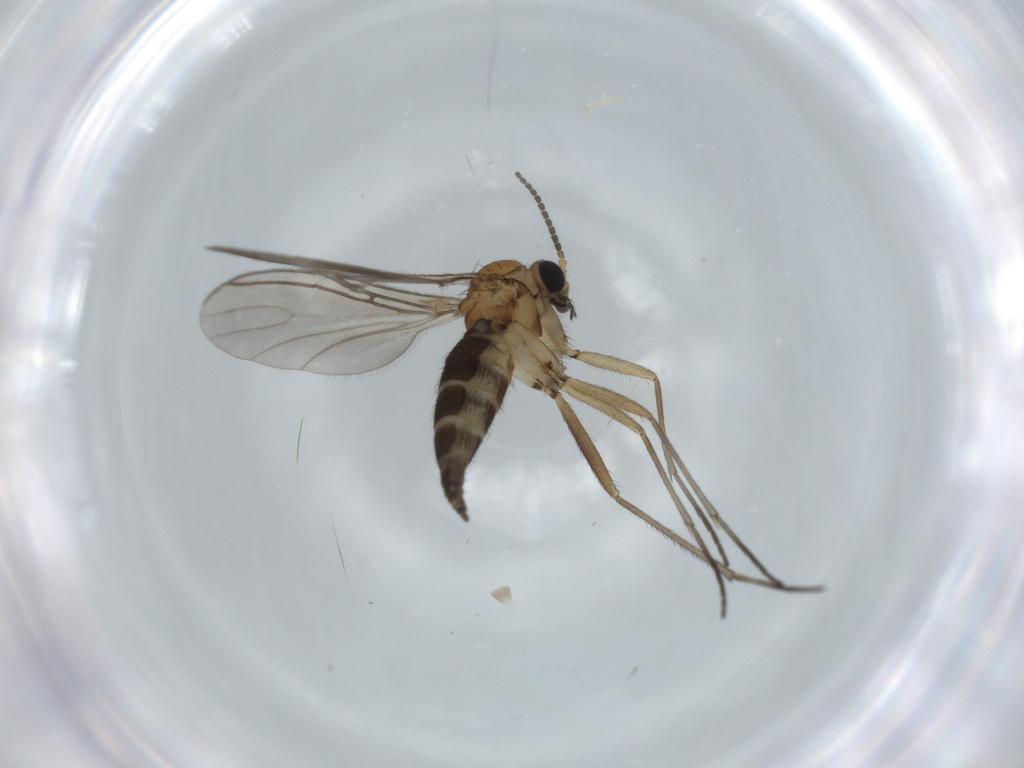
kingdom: Animalia
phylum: Arthropoda
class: Insecta
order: Diptera
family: Sciaridae
